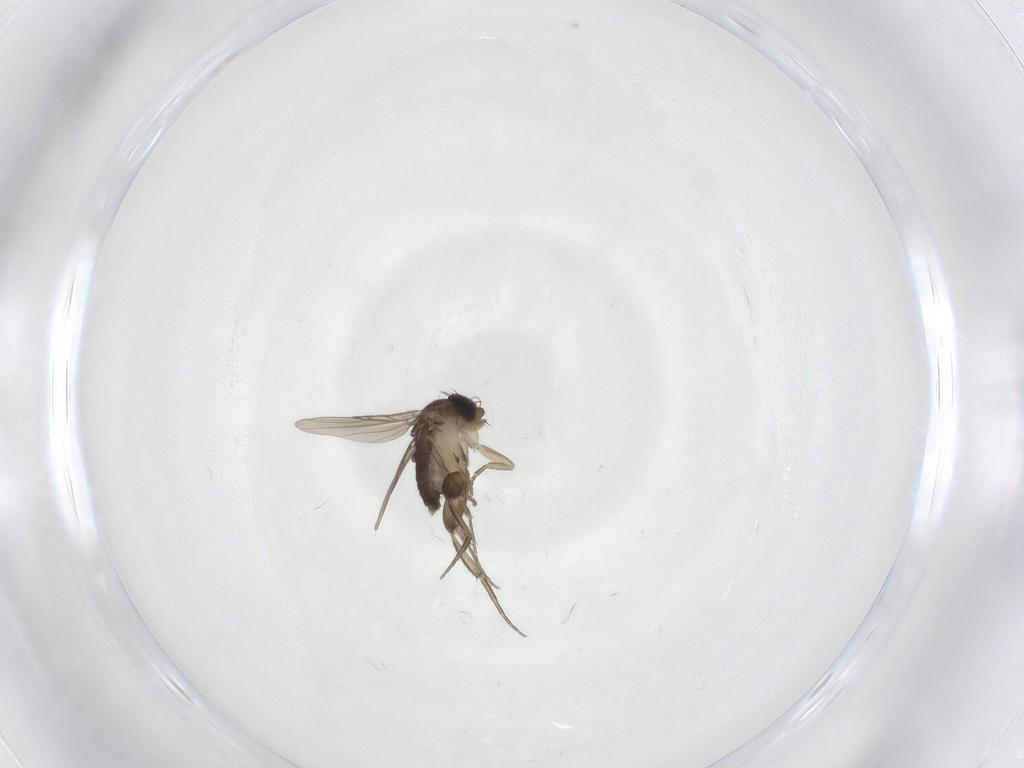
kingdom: Animalia
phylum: Arthropoda
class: Insecta
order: Diptera
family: Phoridae
